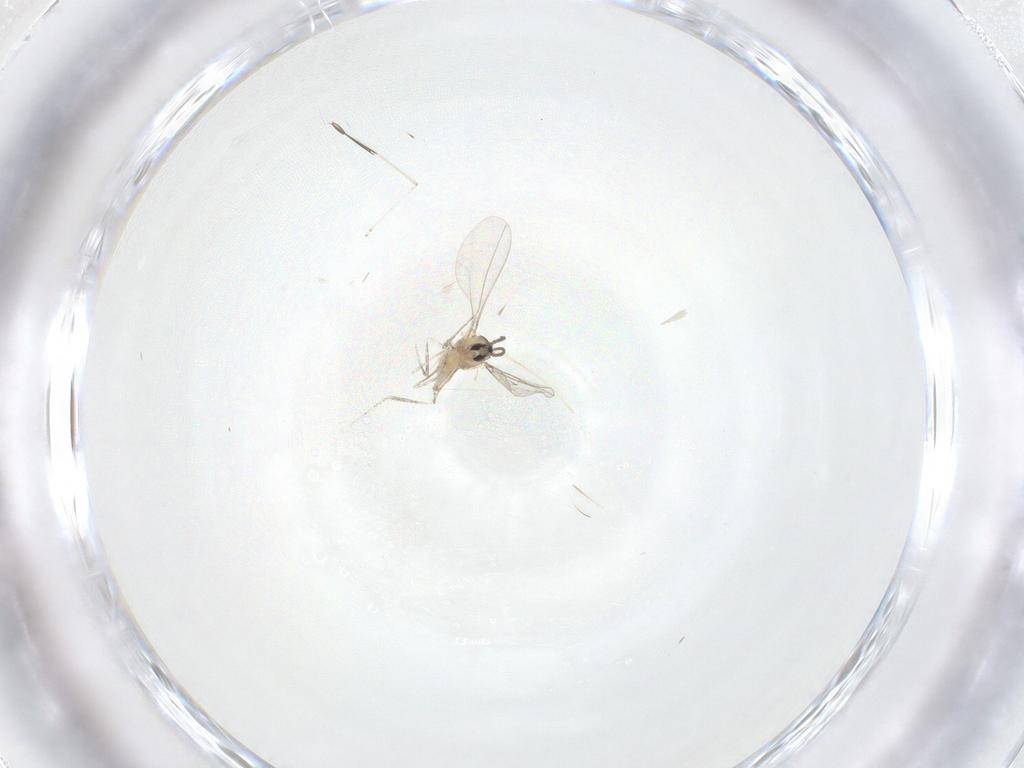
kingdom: Animalia
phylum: Arthropoda
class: Insecta
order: Diptera
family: Cecidomyiidae
